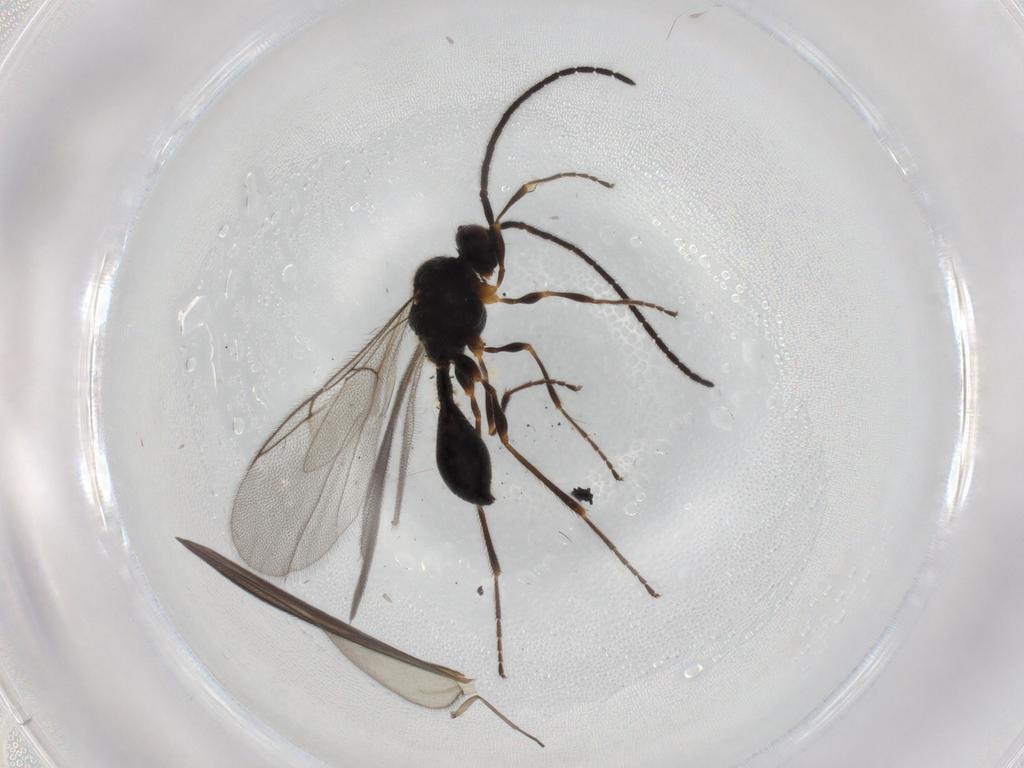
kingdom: Animalia
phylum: Arthropoda
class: Insecta
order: Hymenoptera
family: Diapriidae
